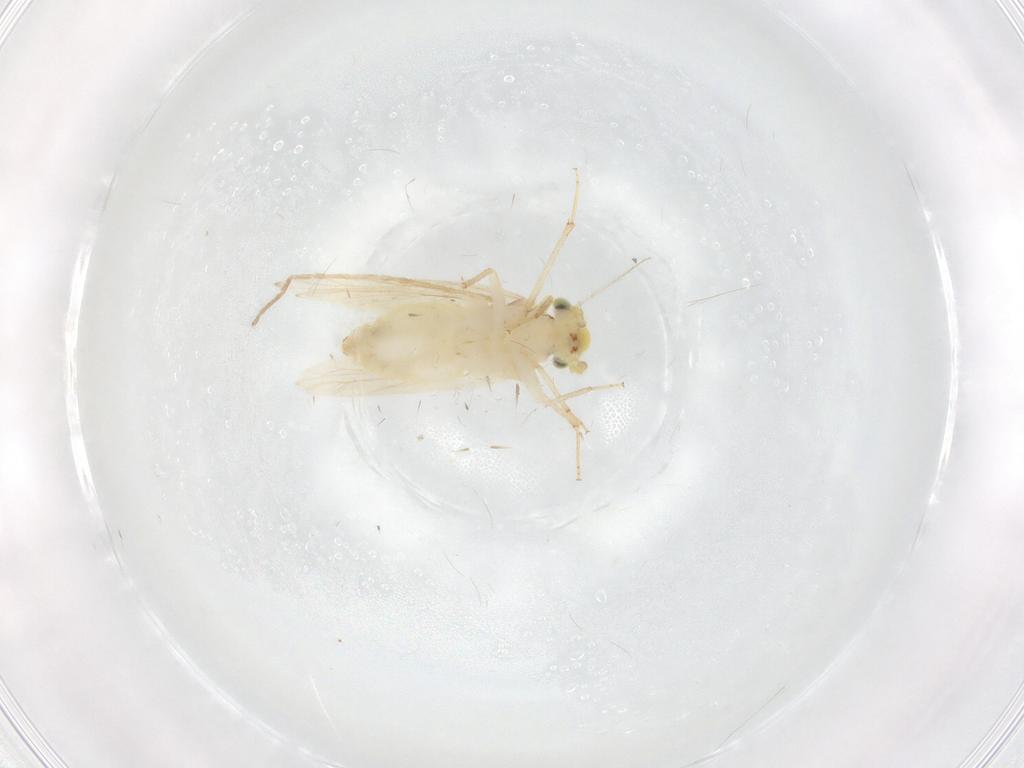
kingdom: Animalia
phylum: Arthropoda
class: Insecta
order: Psocodea
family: Lepidopsocidae
